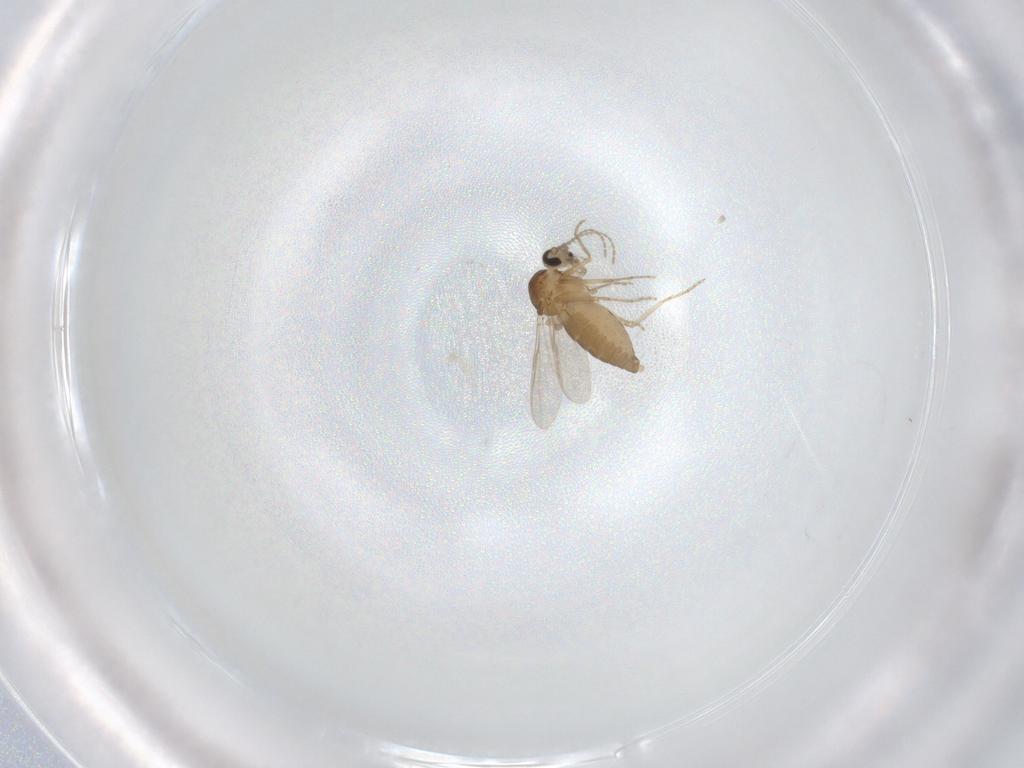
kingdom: Animalia
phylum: Arthropoda
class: Insecta
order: Diptera
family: Ceratopogonidae
